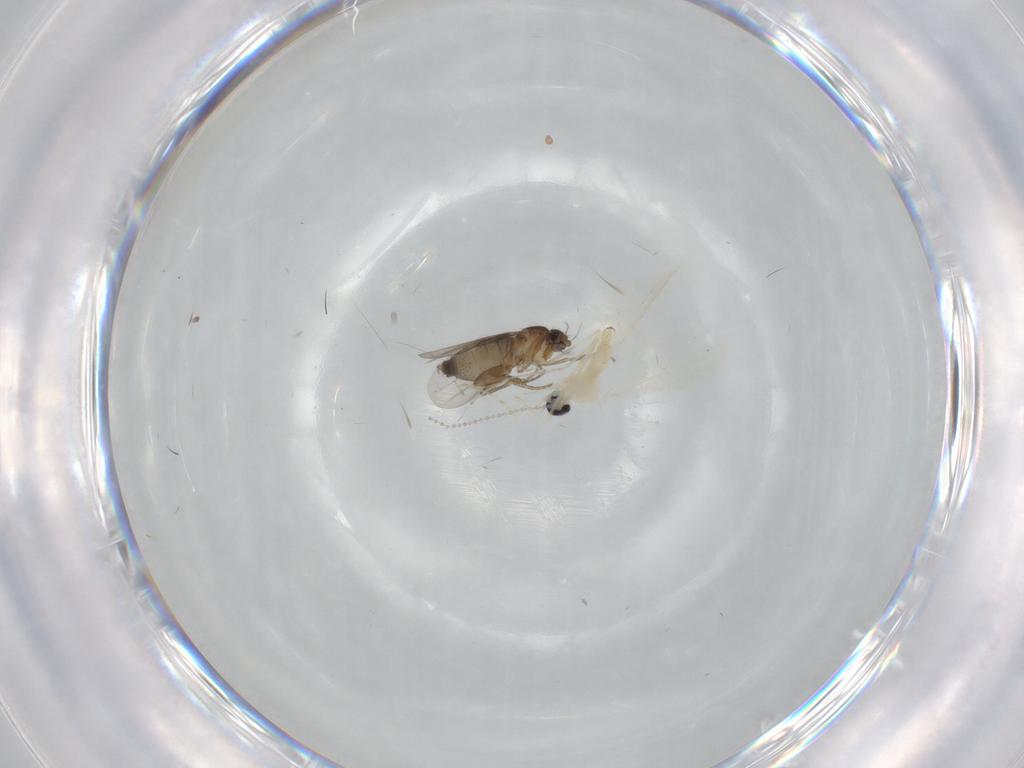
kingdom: Animalia
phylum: Arthropoda
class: Insecta
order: Diptera
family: Cecidomyiidae
